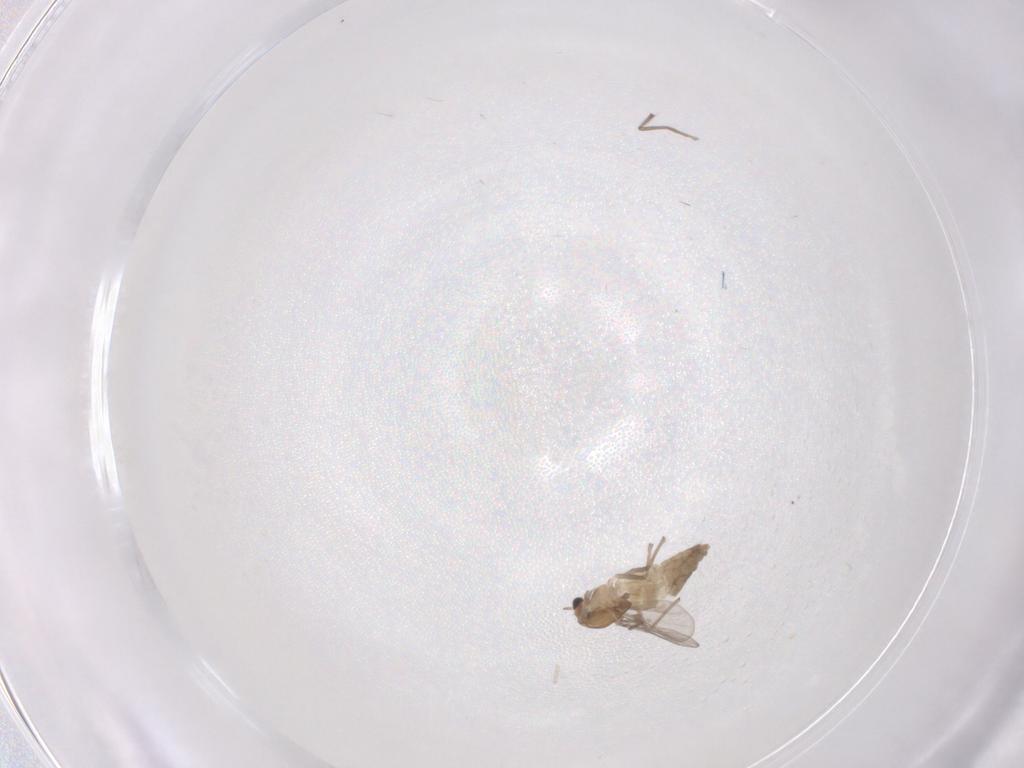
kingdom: Animalia
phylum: Arthropoda
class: Insecta
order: Diptera
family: Chironomidae
